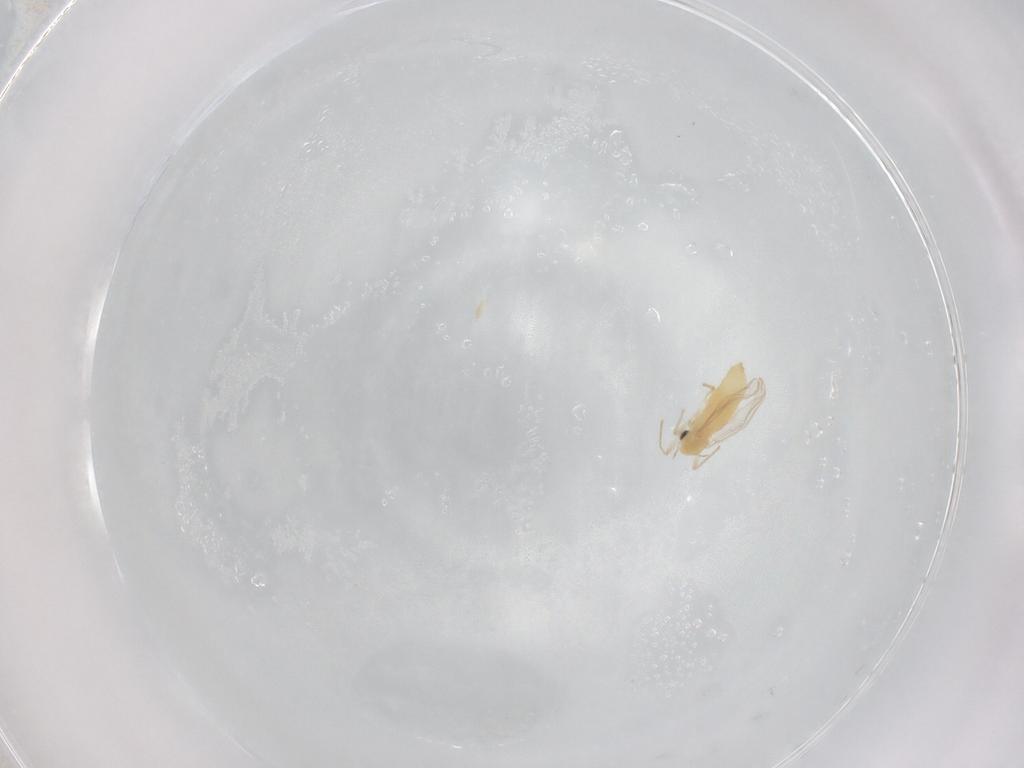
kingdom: Animalia
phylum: Arthropoda
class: Insecta
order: Diptera
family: Chironomidae
